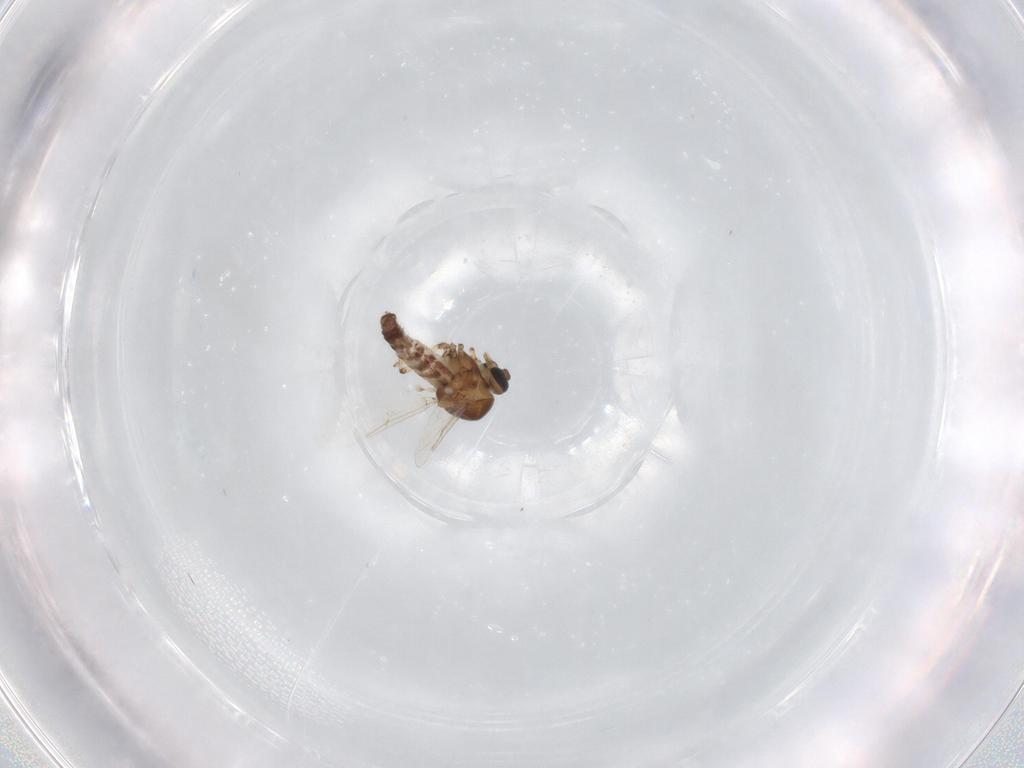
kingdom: Animalia
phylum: Arthropoda
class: Insecta
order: Diptera
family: Ceratopogonidae
